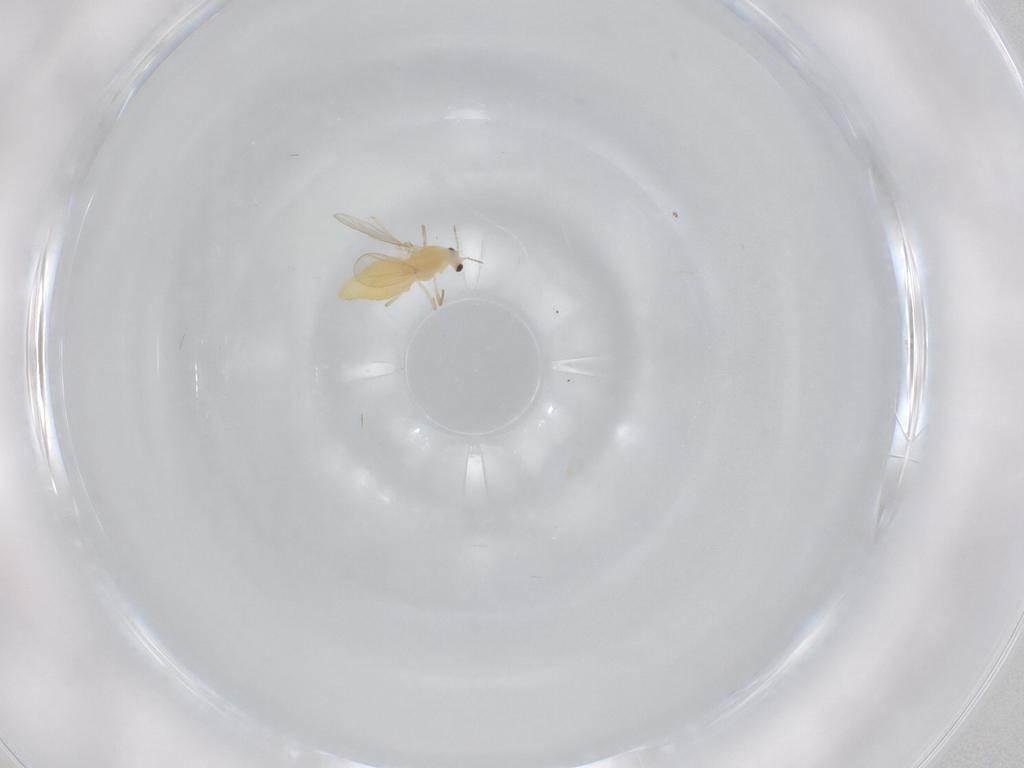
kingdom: Animalia
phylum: Arthropoda
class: Insecta
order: Diptera
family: Chironomidae
